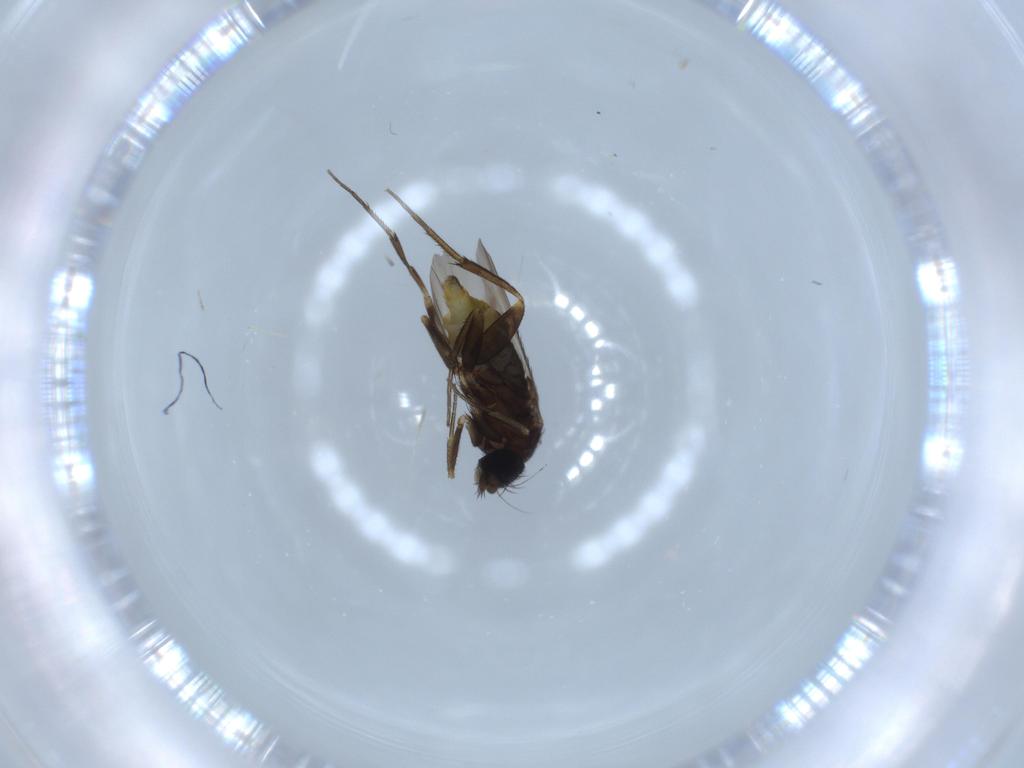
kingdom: Animalia
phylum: Arthropoda
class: Insecta
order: Diptera
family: Phoridae
